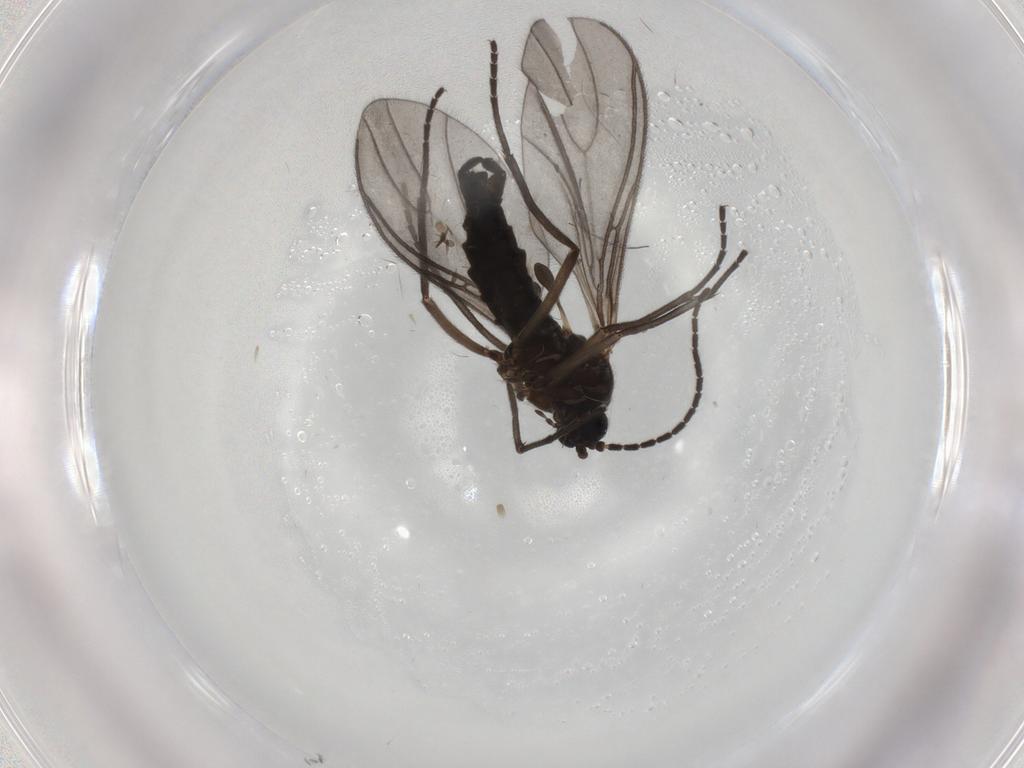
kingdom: Animalia
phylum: Arthropoda
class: Insecta
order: Diptera
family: Sciaridae
